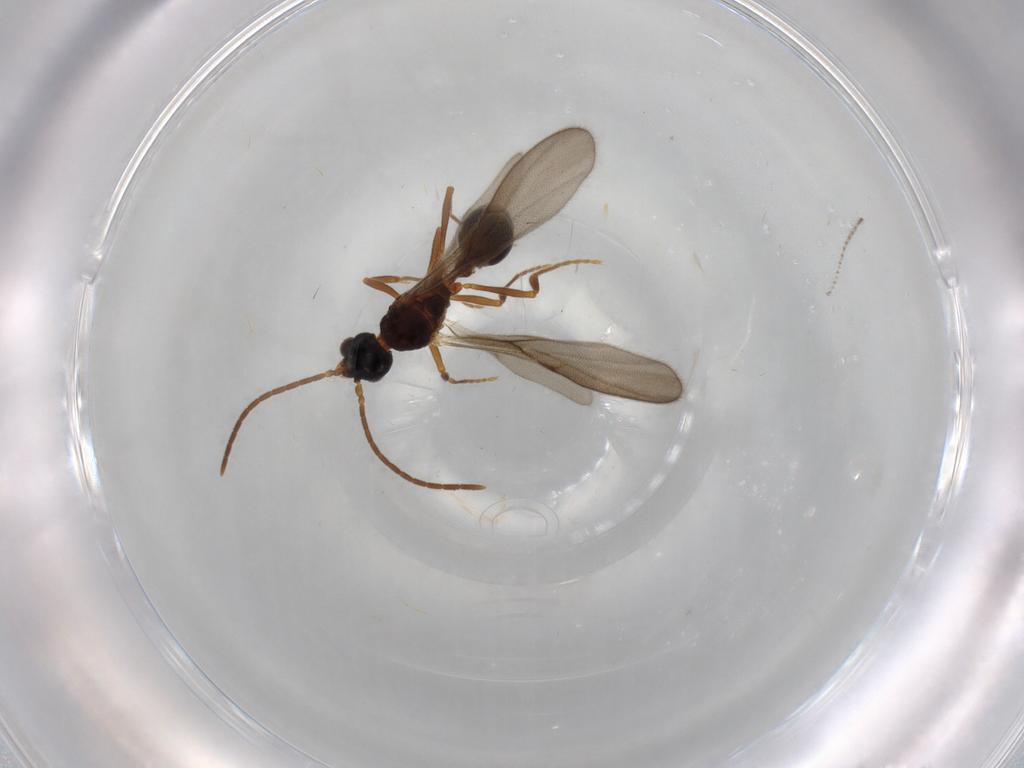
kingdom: Animalia
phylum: Arthropoda
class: Insecta
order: Hymenoptera
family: Formicidae
